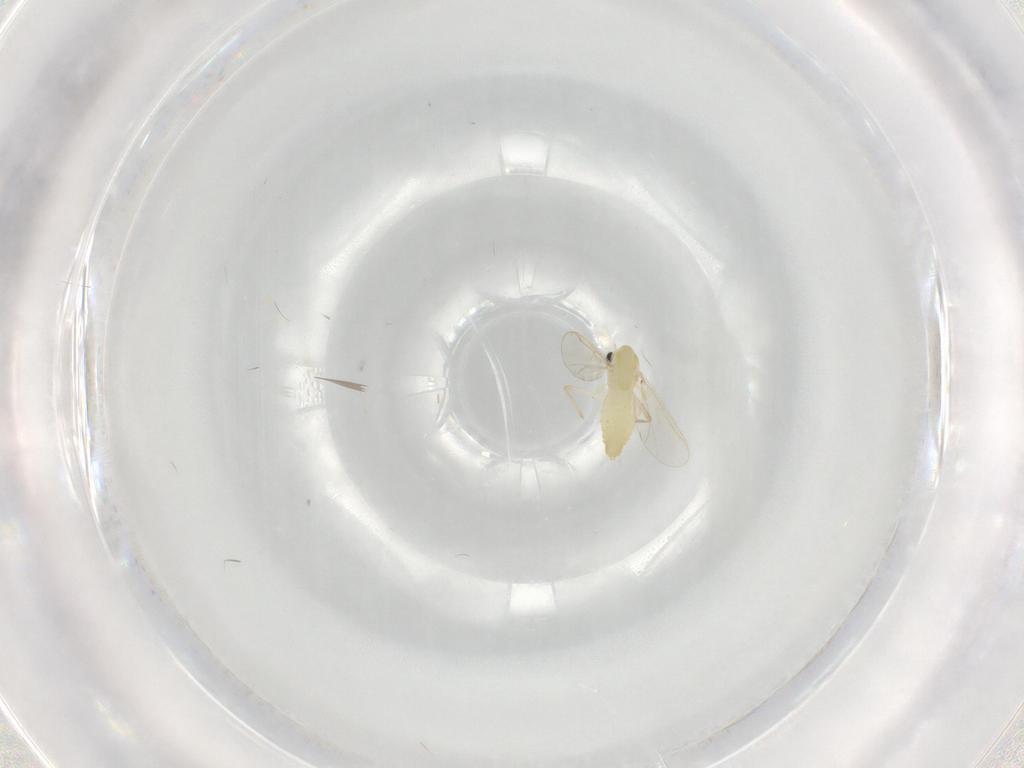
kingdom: Animalia
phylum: Arthropoda
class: Insecta
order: Diptera
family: Chironomidae
